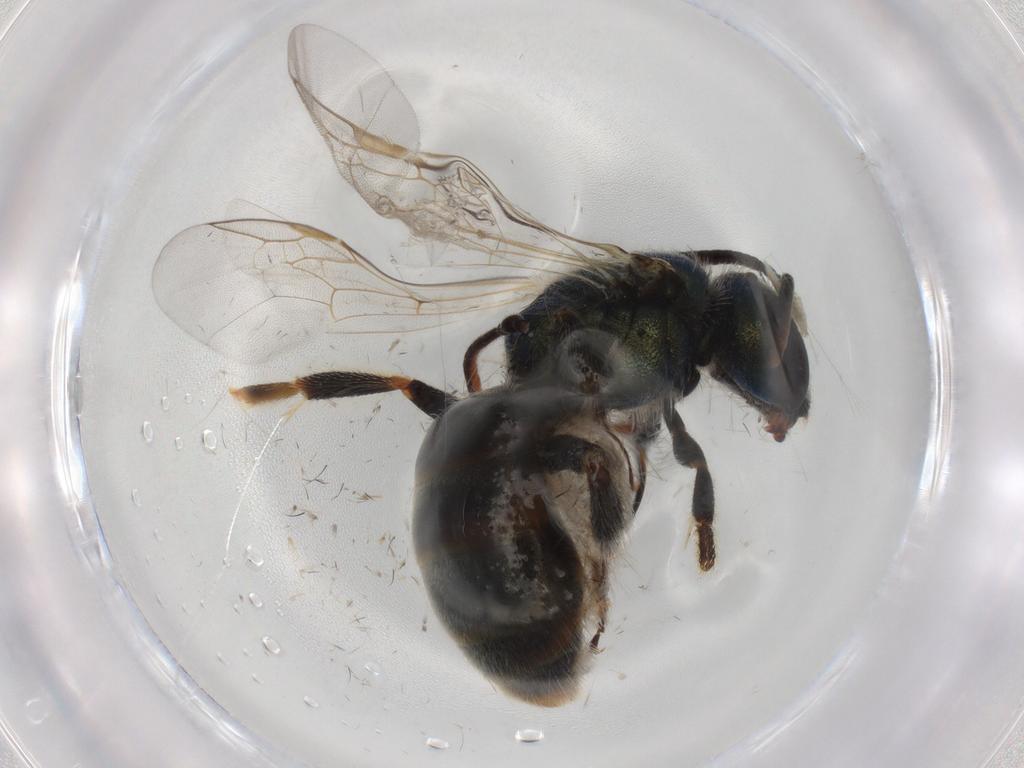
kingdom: Animalia
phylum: Arthropoda
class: Insecta
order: Hymenoptera
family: Ichneumonidae
